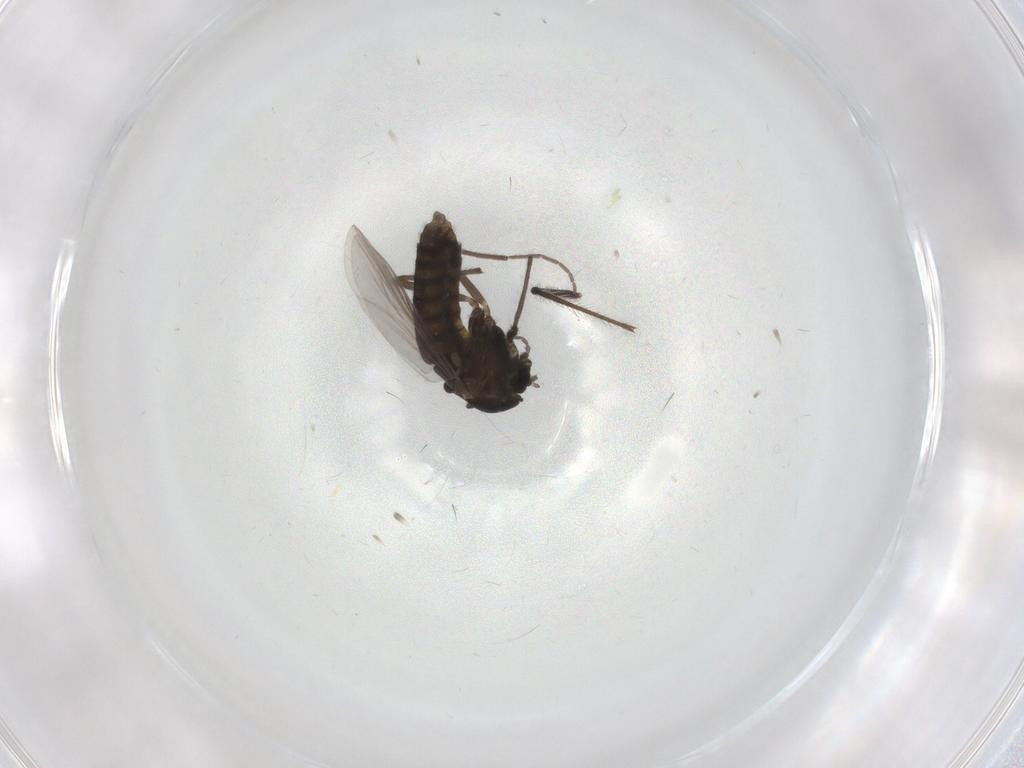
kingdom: Animalia
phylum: Arthropoda
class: Insecta
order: Diptera
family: Chironomidae
